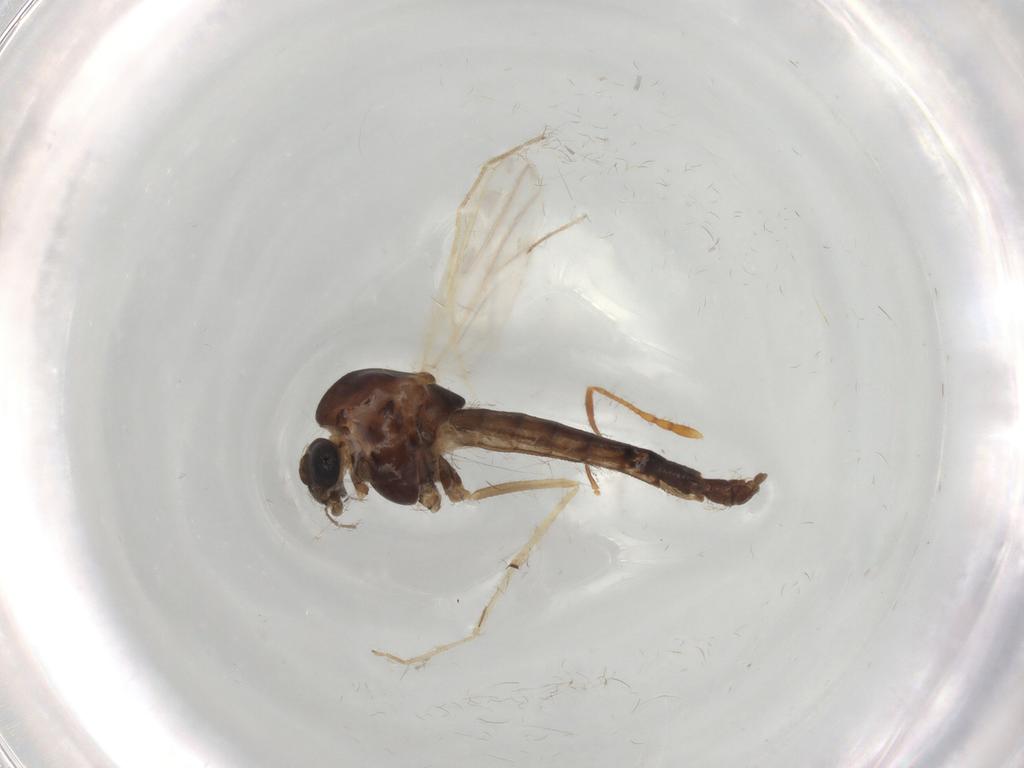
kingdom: Animalia
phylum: Arthropoda
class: Insecta
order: Diptera
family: Chironomidae
